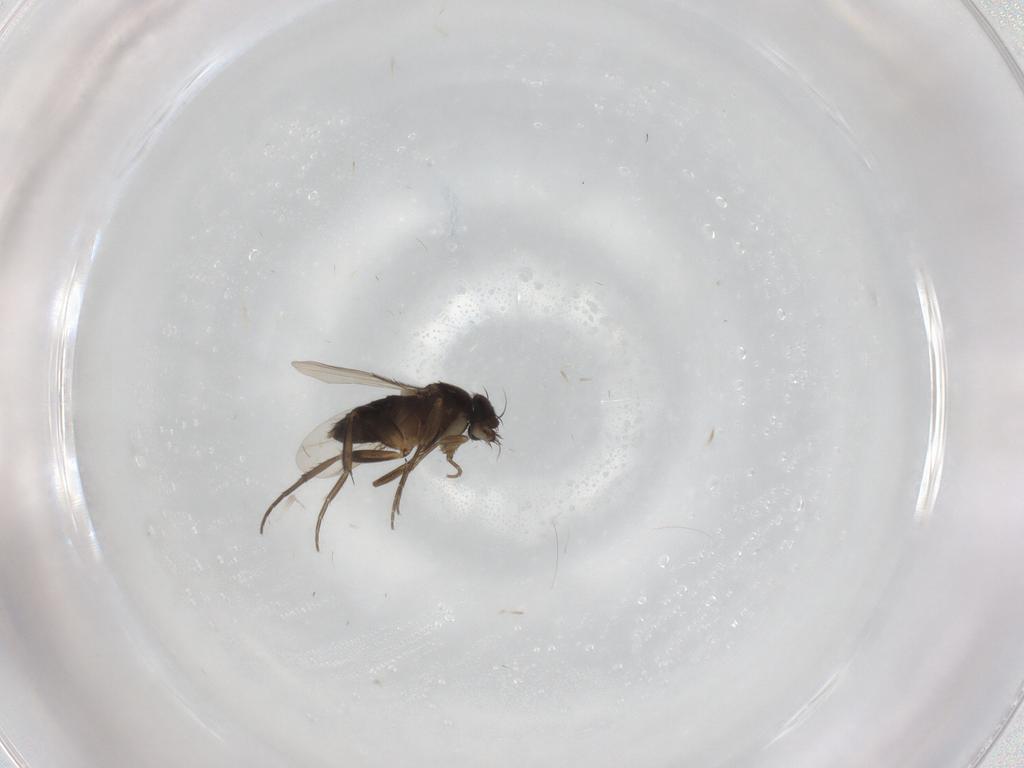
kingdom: Animalia
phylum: Arthropoda
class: Insecta
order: Diptera
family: Phoridae
